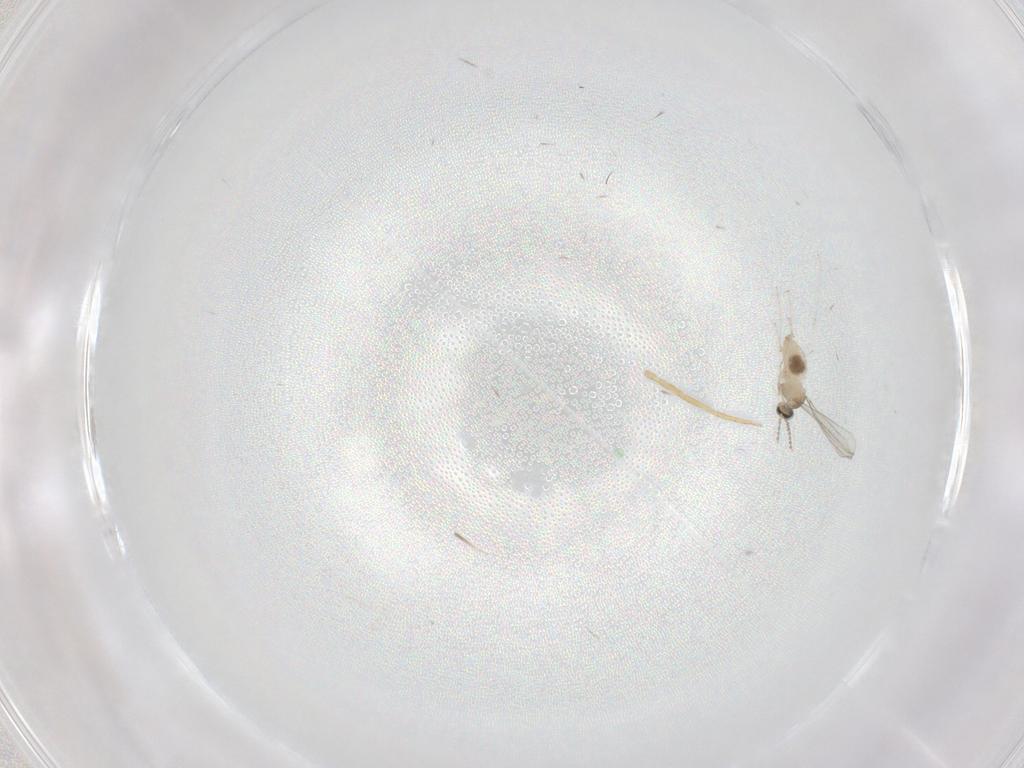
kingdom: Animalia
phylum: Arthropoda
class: Insecta
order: Diptera
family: Cecidomyiidae
